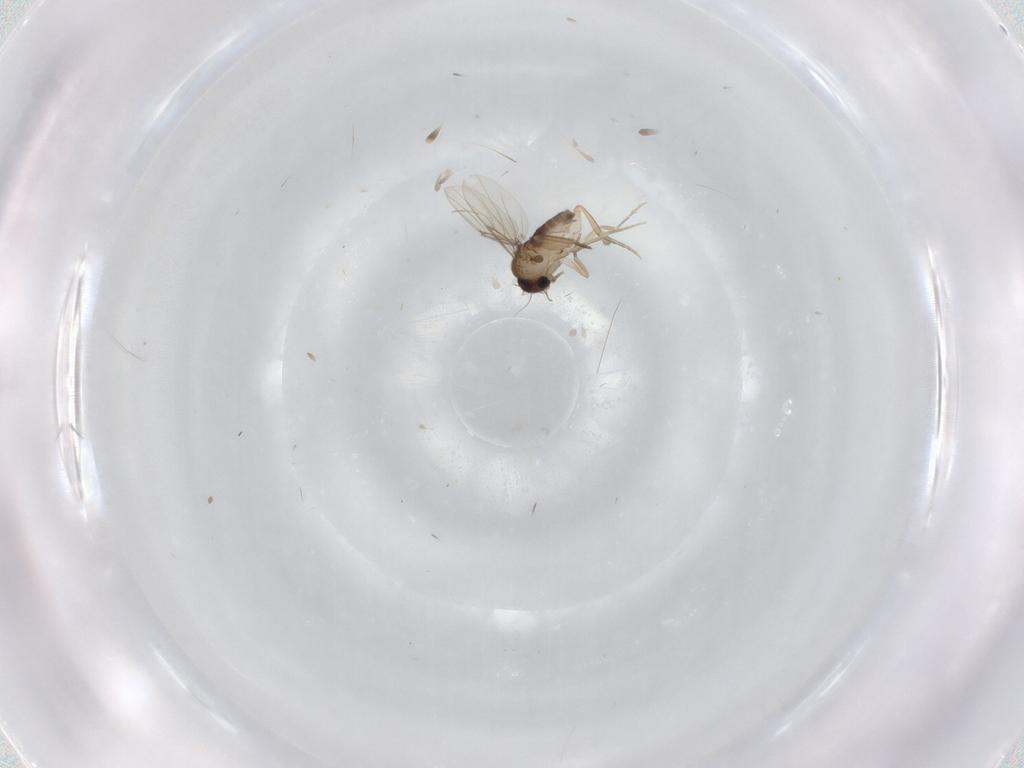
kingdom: Animalia
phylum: Arthropoda
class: Insecta
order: Diptera
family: Phoridae
